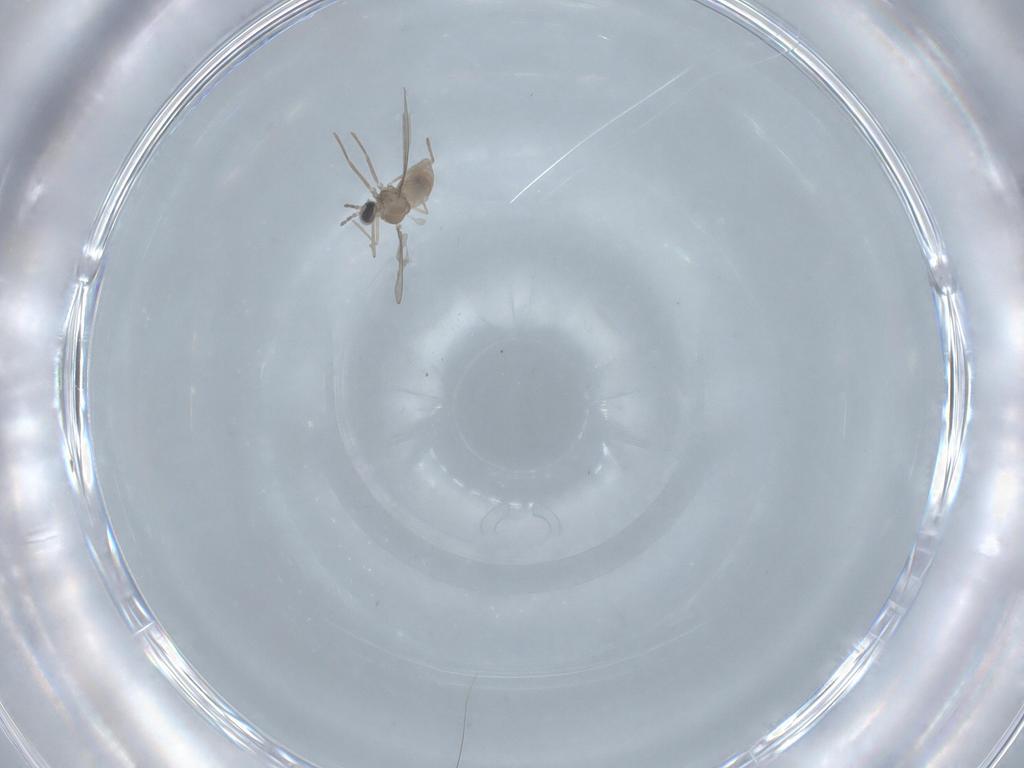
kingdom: Animalia
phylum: Arthropoda
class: Insecta
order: Diptera
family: Cecidomyiidae
